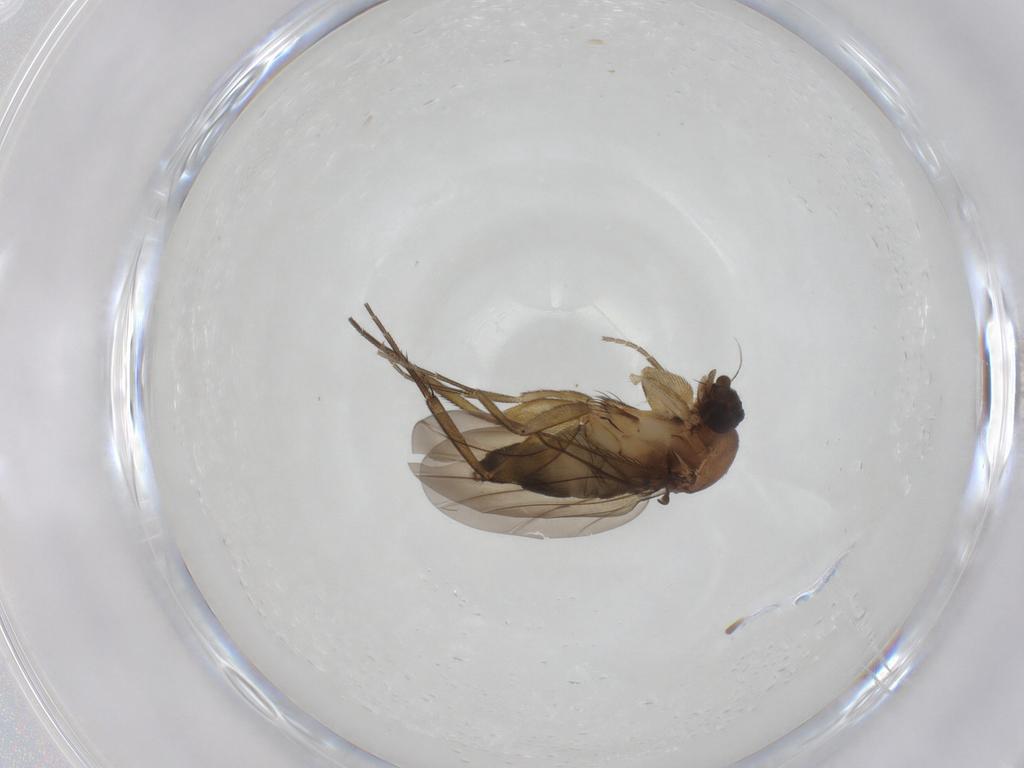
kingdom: Animalia
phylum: Arthropoda
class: Insecta
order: Diptera
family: Phoridae
